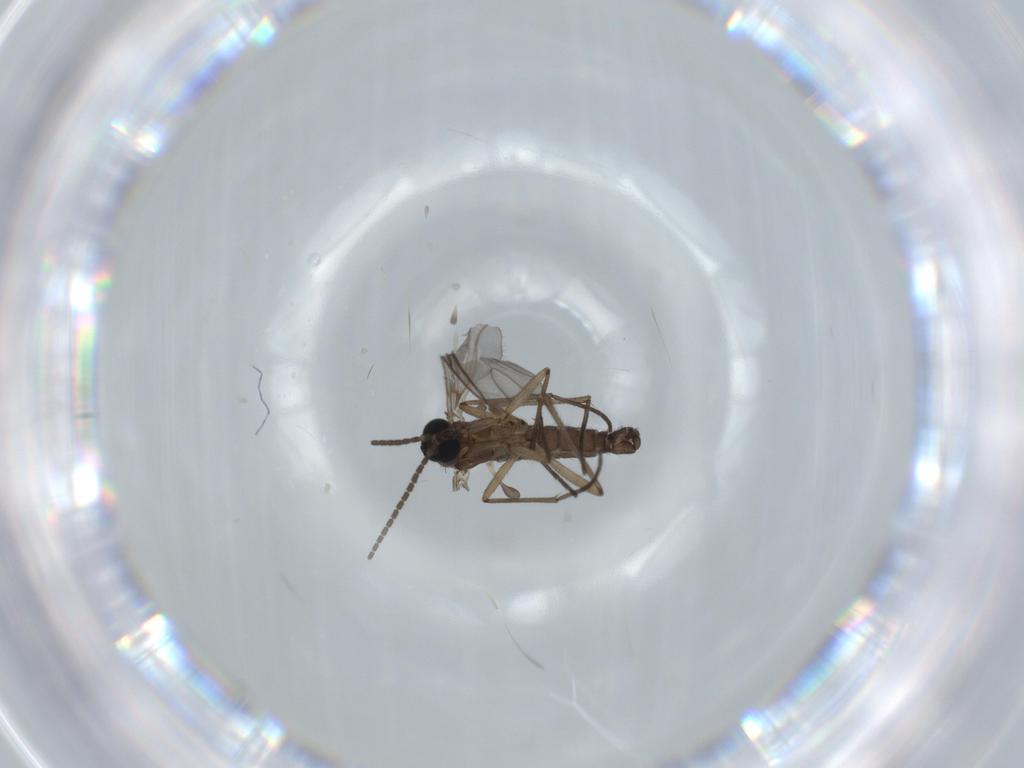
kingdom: Animalia
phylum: Arthropoda
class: Insecta
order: Diptera
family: Sciaridae
